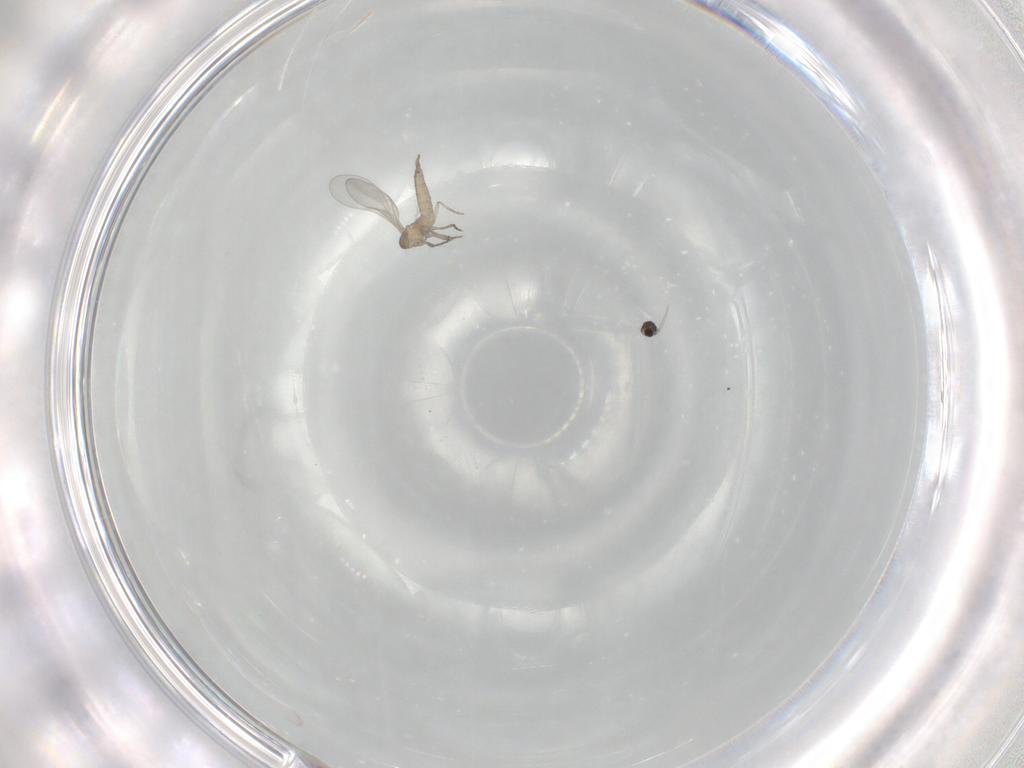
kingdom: Animalia
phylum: Arthropoda
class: Insecta
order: Diptera
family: Cecidomyiidae
